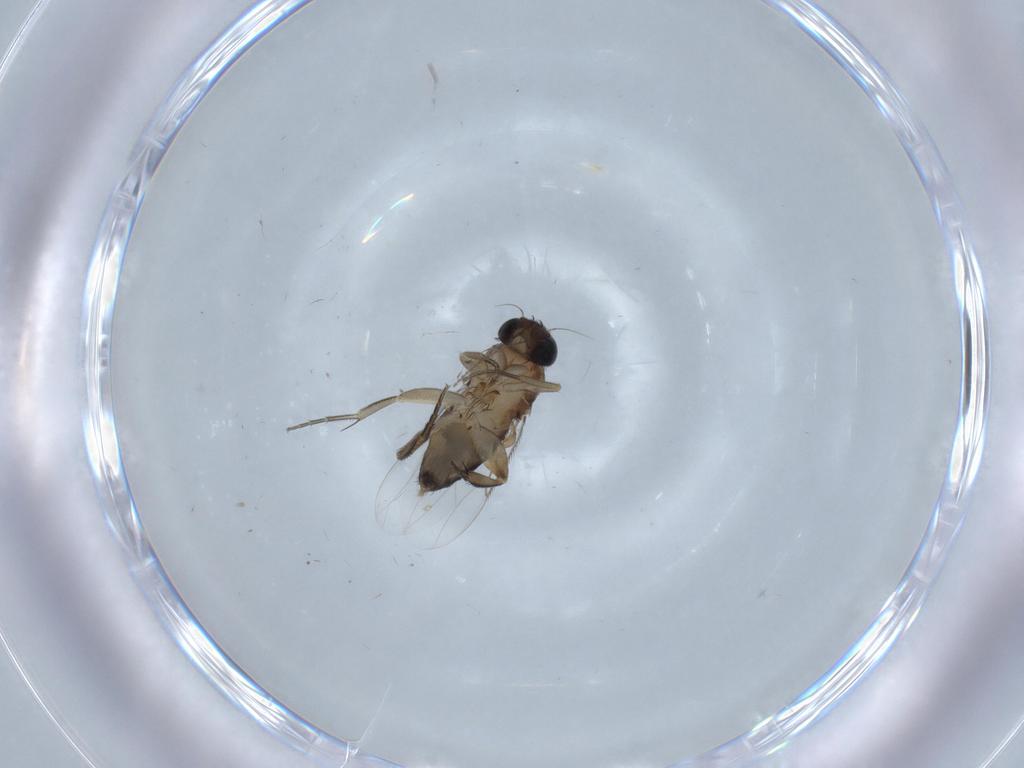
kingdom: Animalia
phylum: Arthropoda
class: Insecta
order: Diptera
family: Phoridae
